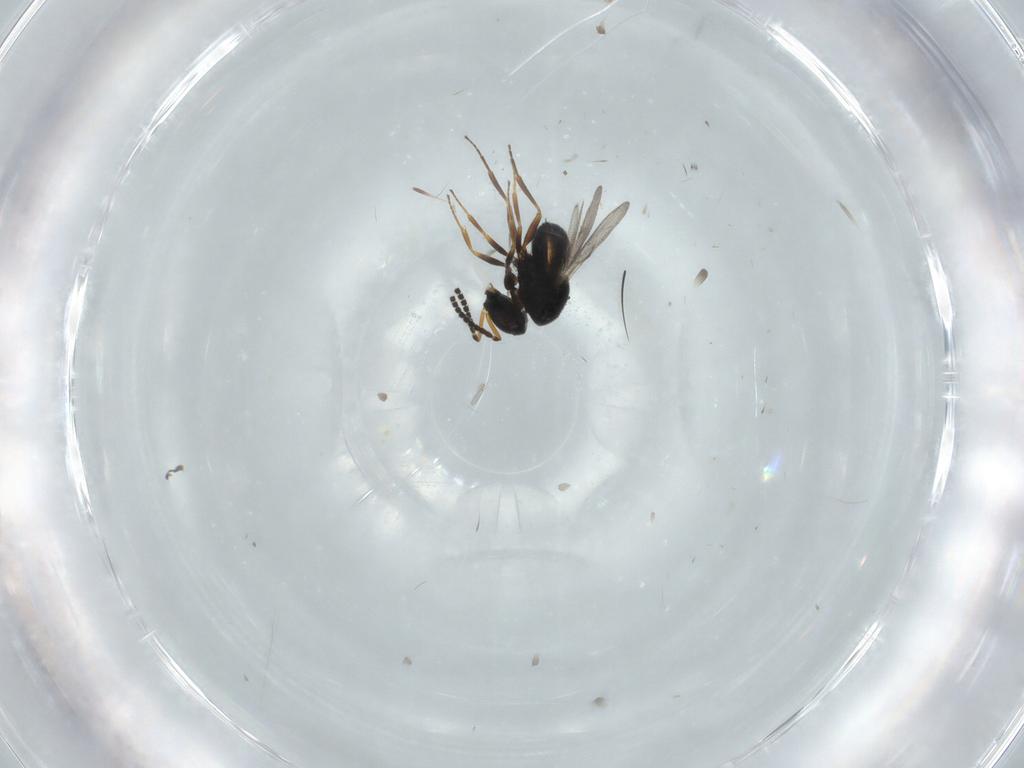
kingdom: Animalia
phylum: Arthropoda
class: Insecta
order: Hymenoptera
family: Scelionidae
